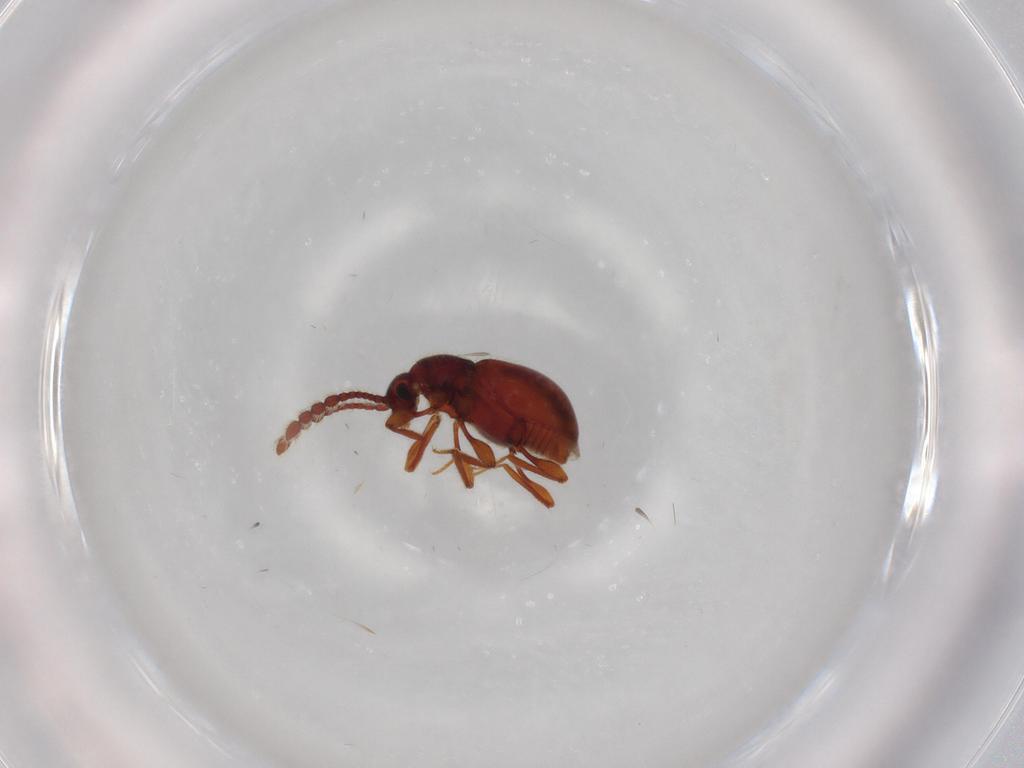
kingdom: Animalia
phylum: Arthropoda
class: Insecta
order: Coleoptera
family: Staphylinidae
